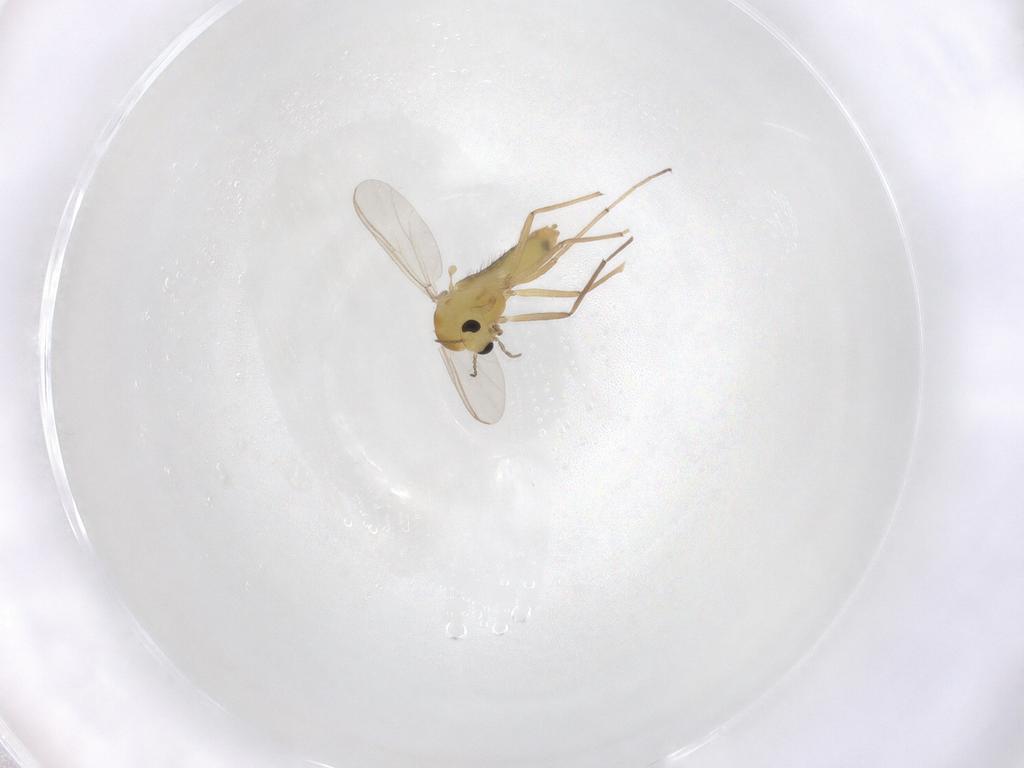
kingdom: Animalia
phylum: Arthropoda
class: Insecta
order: Diptera
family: Chironomidae
